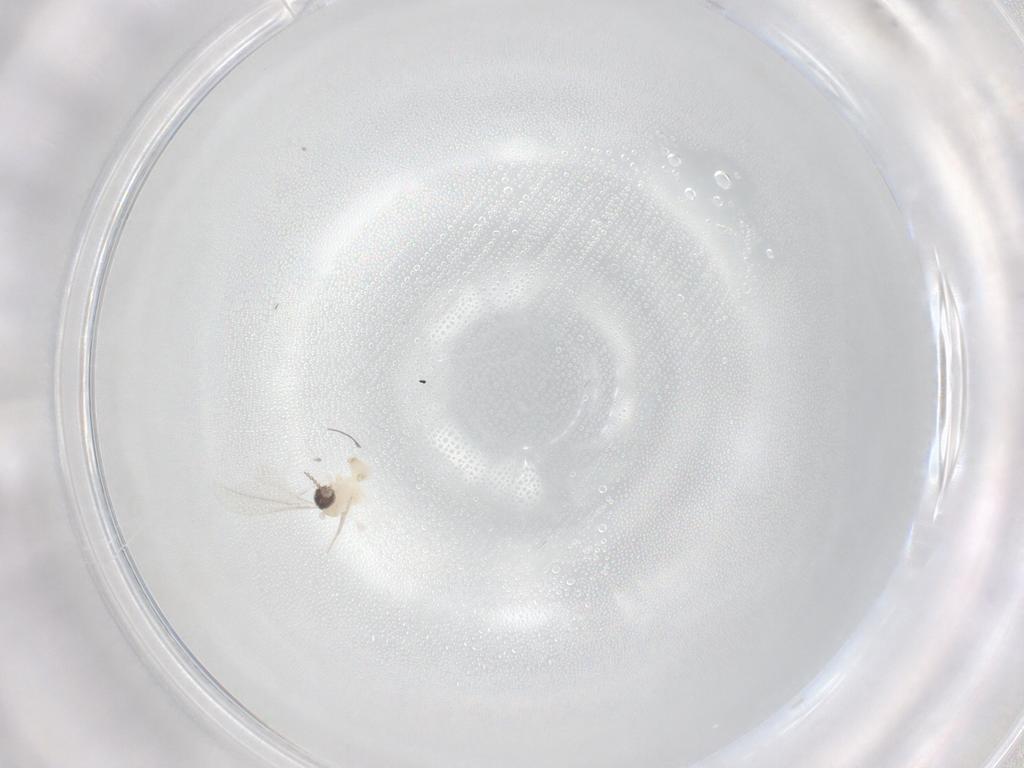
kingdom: Animalia
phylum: Arthropoda
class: Insecta
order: Diptera
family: Cecidomyiidae
